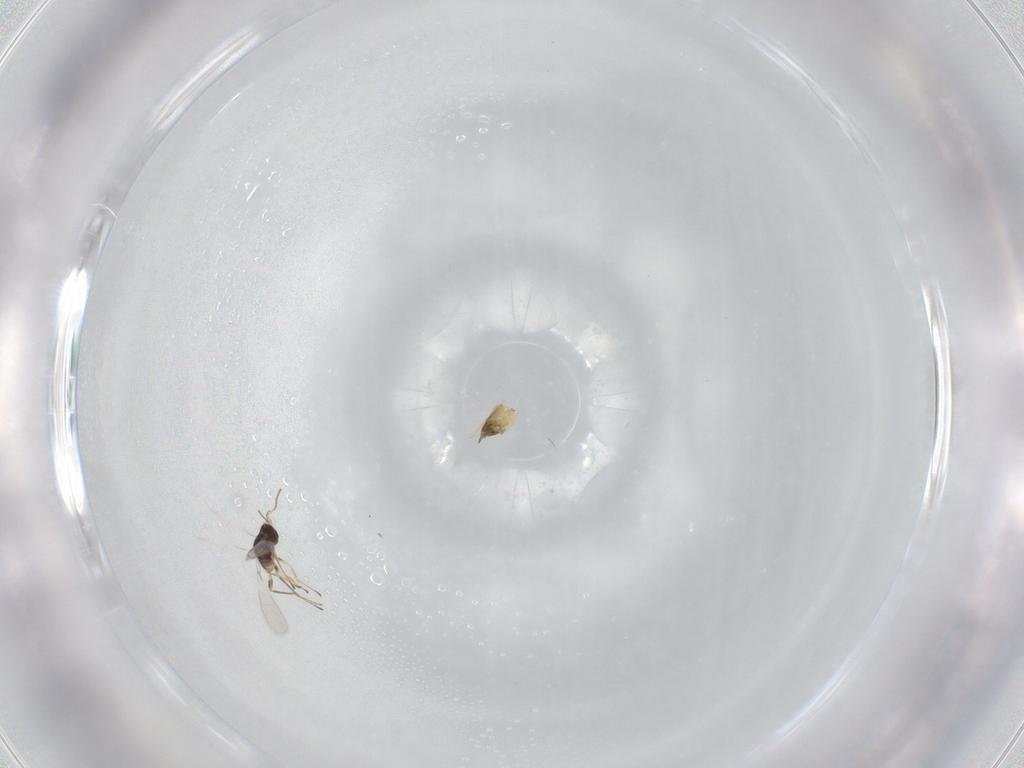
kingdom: Animalia
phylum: Arthropoda
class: Insecta
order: Hymenoptera
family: Mymaridae
